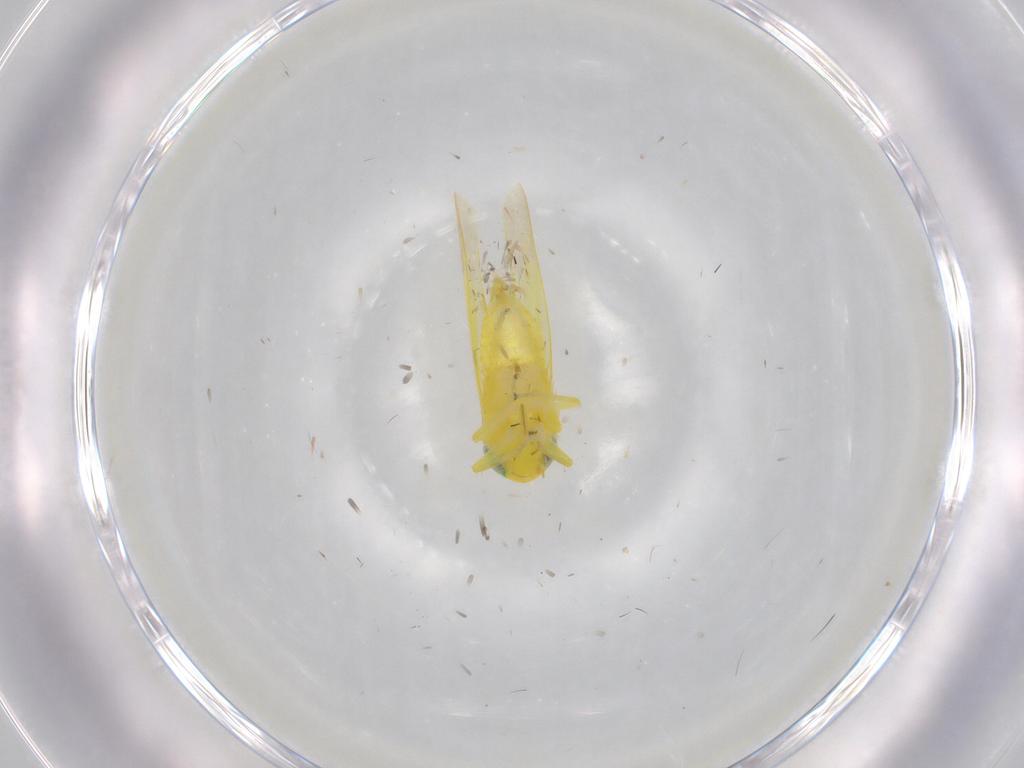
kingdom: Animalia
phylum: Arthropoda
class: Insecta
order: Hemiptera
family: Cicadellidae
